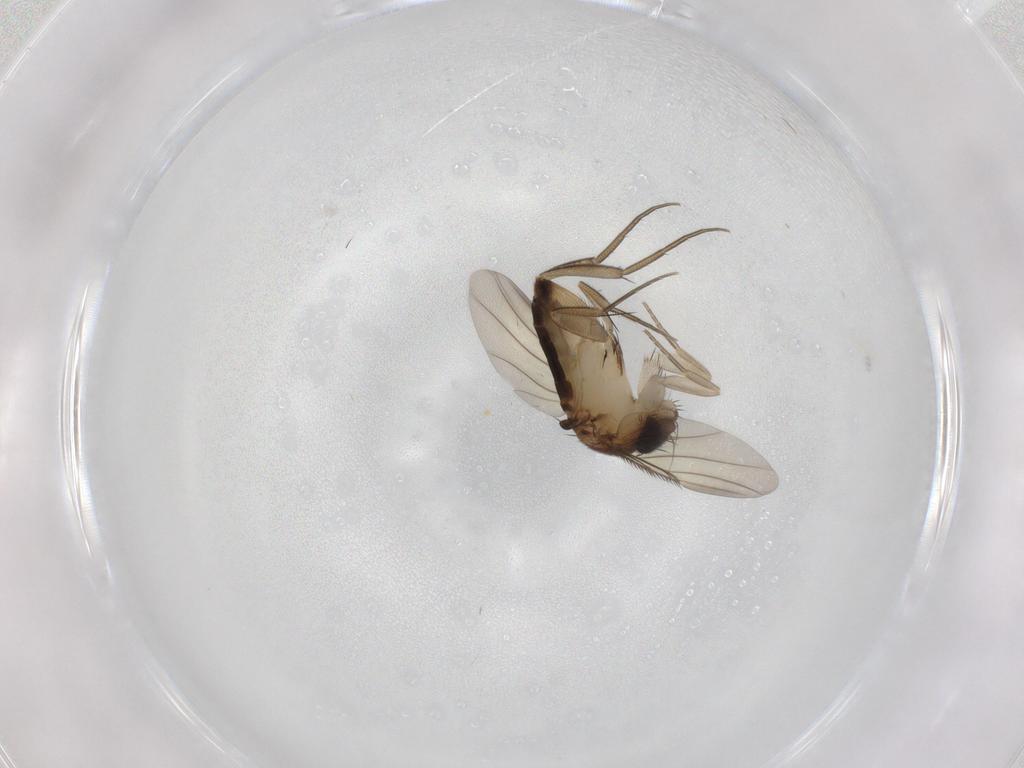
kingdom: Animalia
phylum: Arthropoda
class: Insecta
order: Diptera
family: Phoridae
